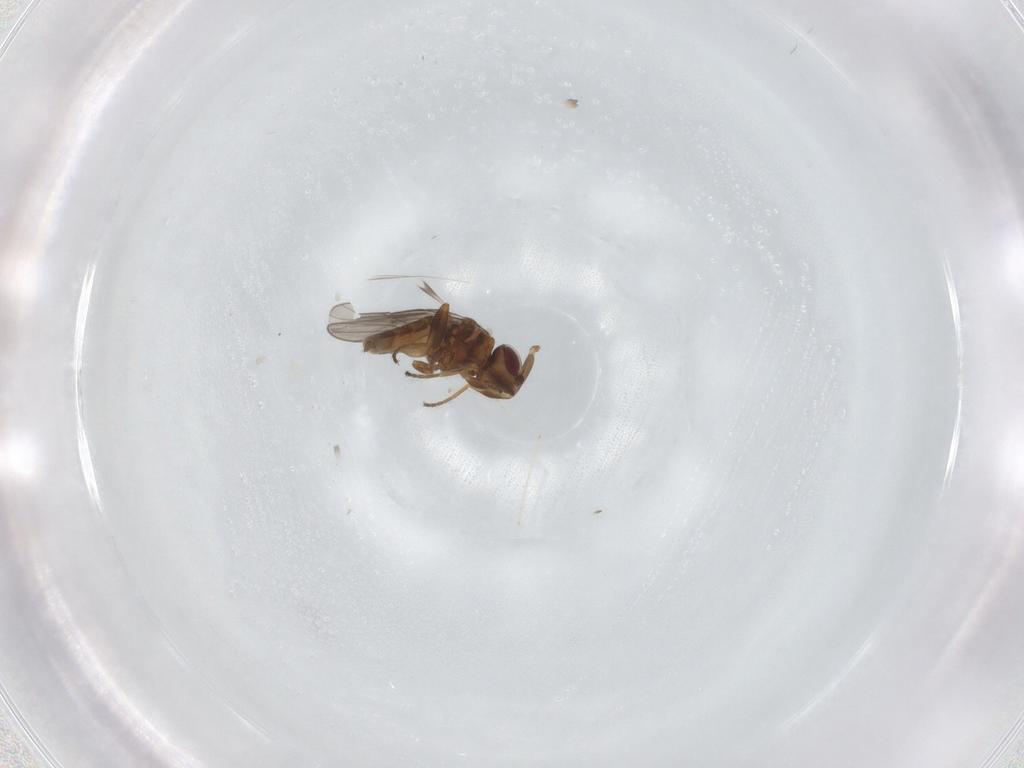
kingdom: Animalia
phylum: Arthropoda
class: Insecta
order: Diptera
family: Chloropidae
